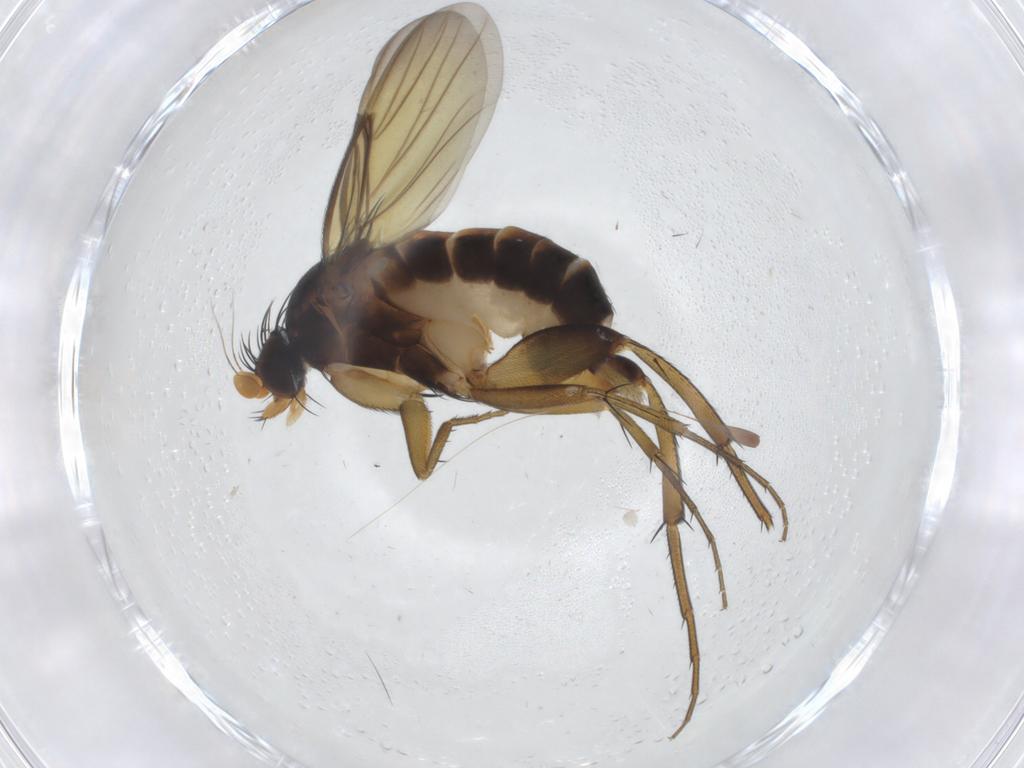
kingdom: Animalia
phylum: Arthropoda
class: Insecta
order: Diptera
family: Phoridae
